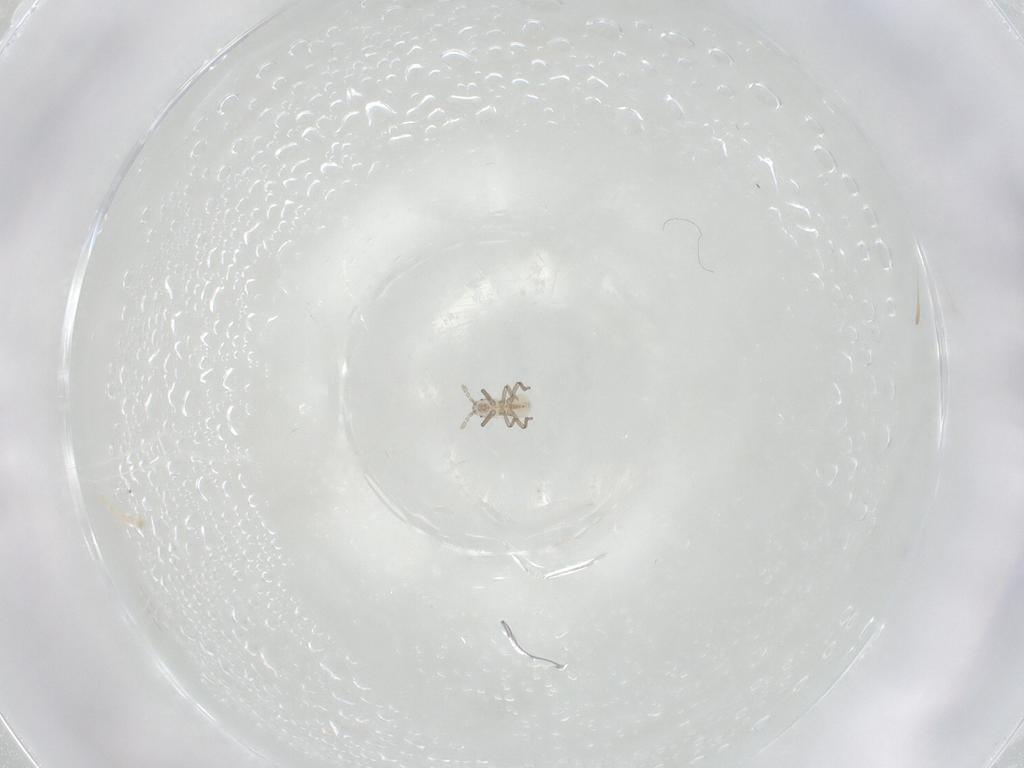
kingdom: Animalia
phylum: Arthropoda
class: Insecta
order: Hemiptera
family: Aphididae
